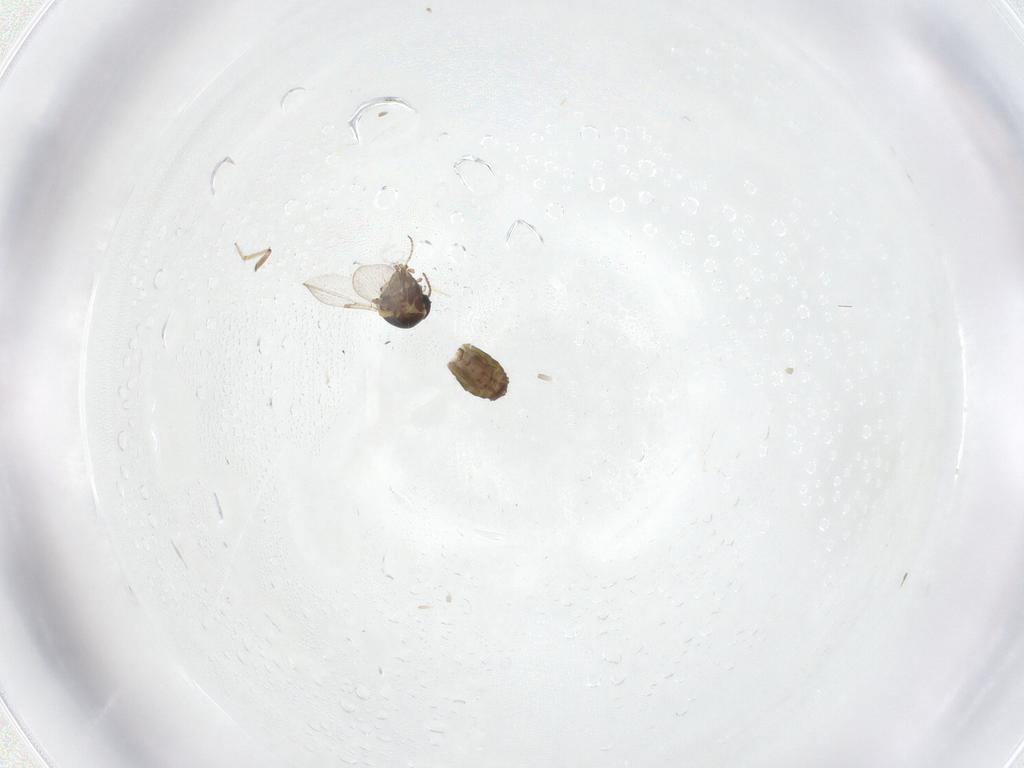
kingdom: Animalia
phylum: Arthropoda
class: Insecta
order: Diptera
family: Ceratopogonidae
